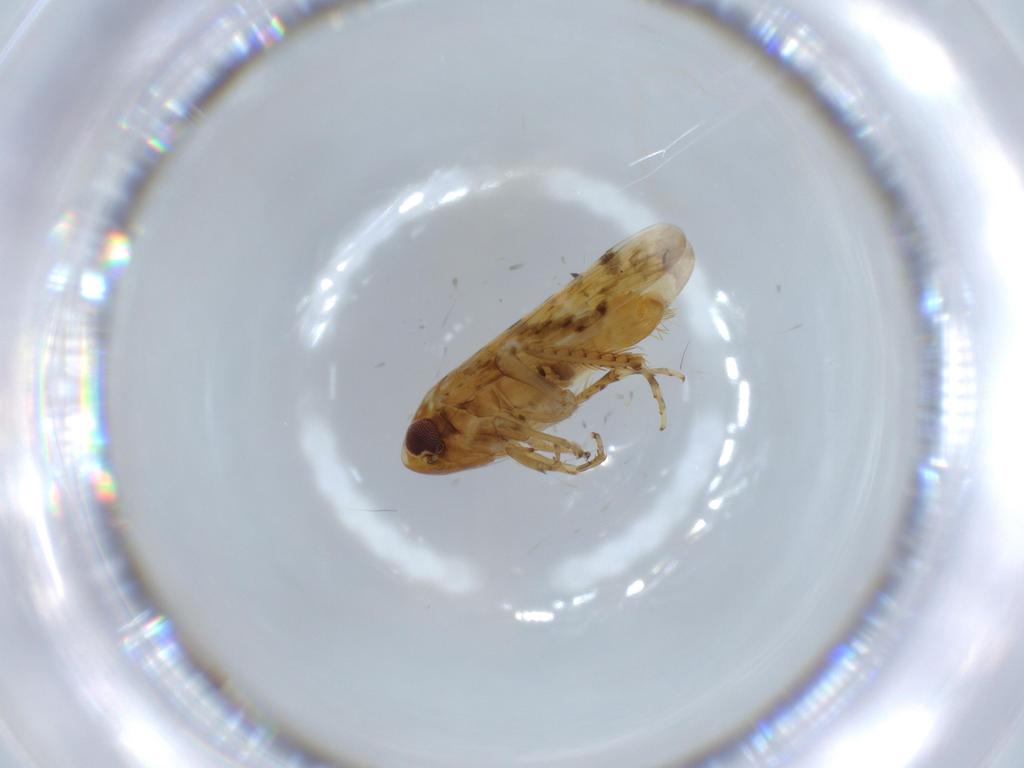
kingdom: Animalia
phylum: Arthropoda
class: Insecta
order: Hemiptera
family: Cicadellidae
